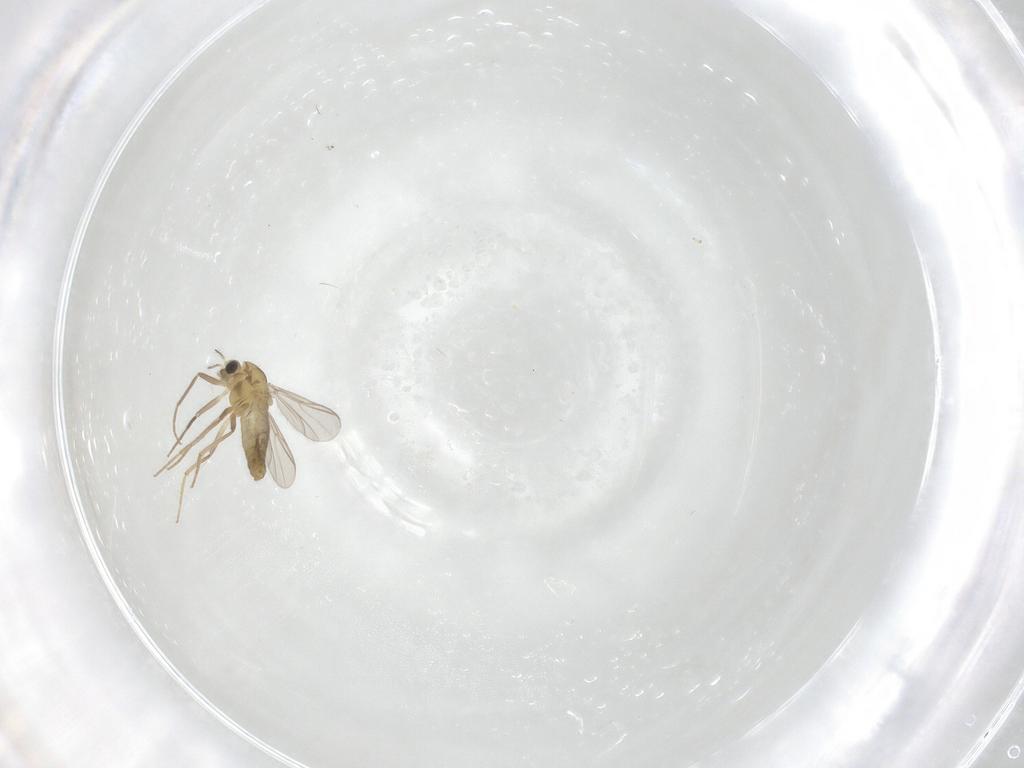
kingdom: Animalia
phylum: Arthropoda
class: Insecta
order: Diptera
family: Chironomidae
